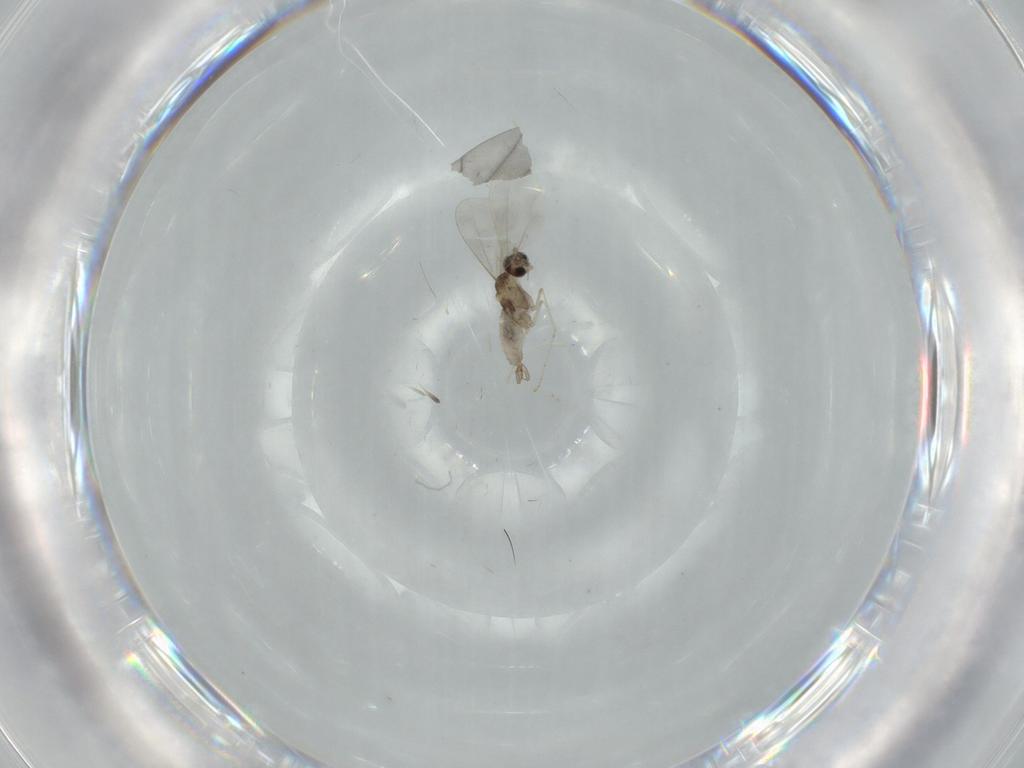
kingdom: Animalia
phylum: Arthropoda
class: Insecta
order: Diptera
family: Cecidomyiidae
